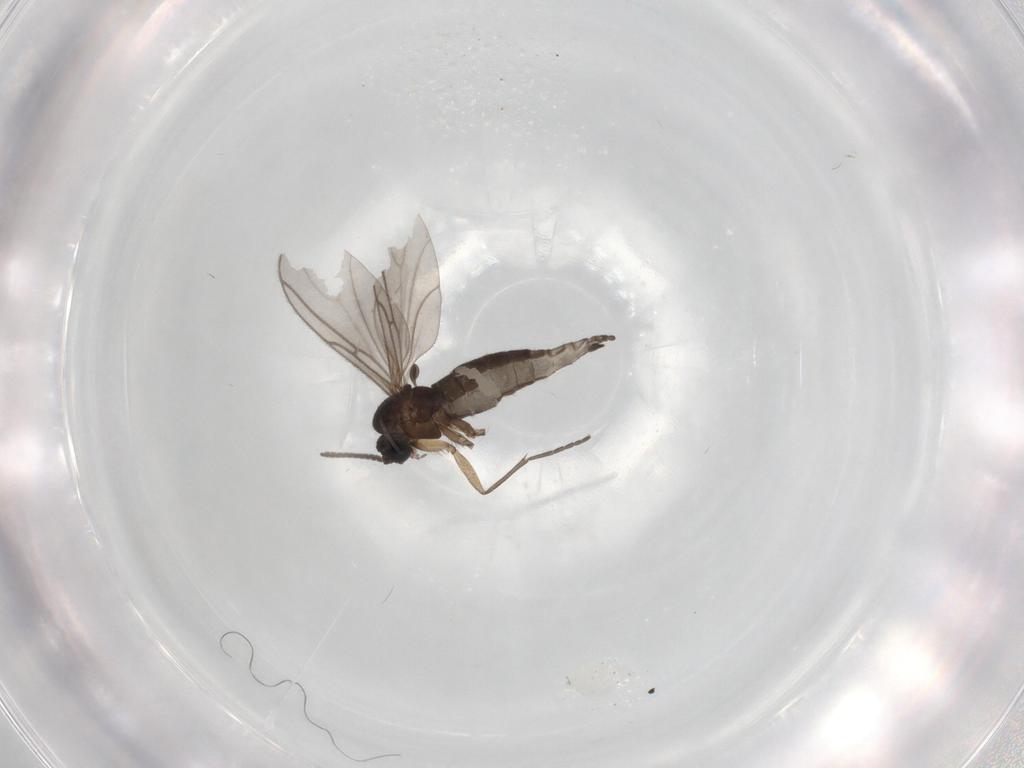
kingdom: Animalia
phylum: Arthropoda
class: Insecta
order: Diptera
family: Sciaridae
